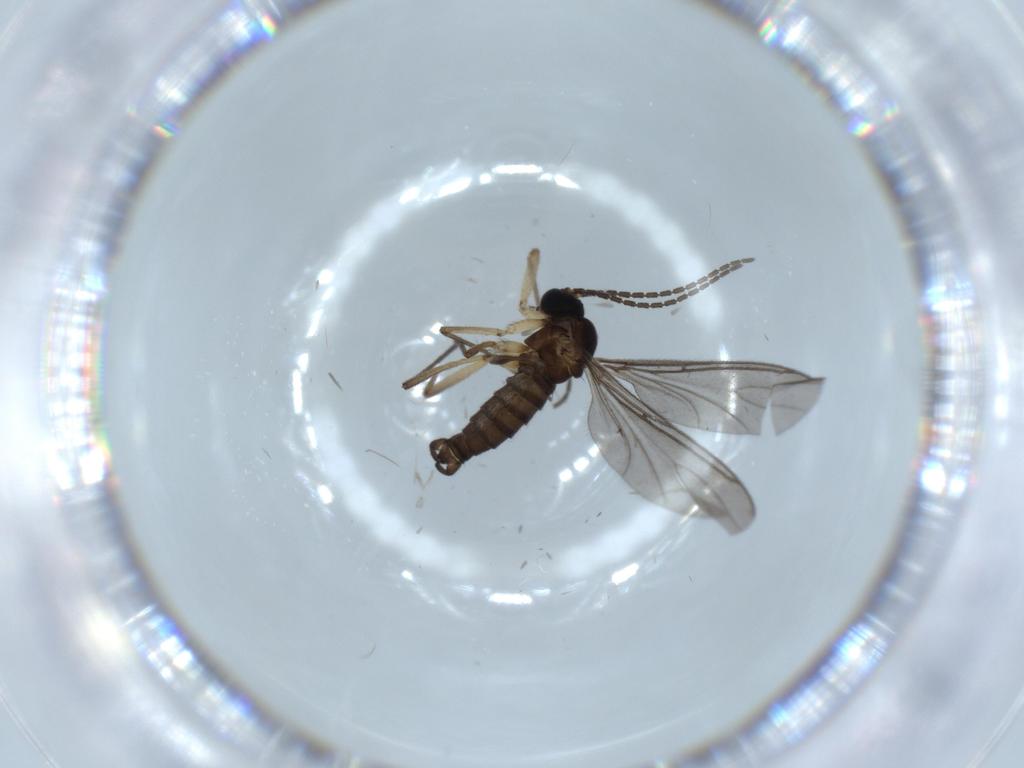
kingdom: Animalia
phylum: Arthropoda
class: Insecta
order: Diptera
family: Sciaridae
